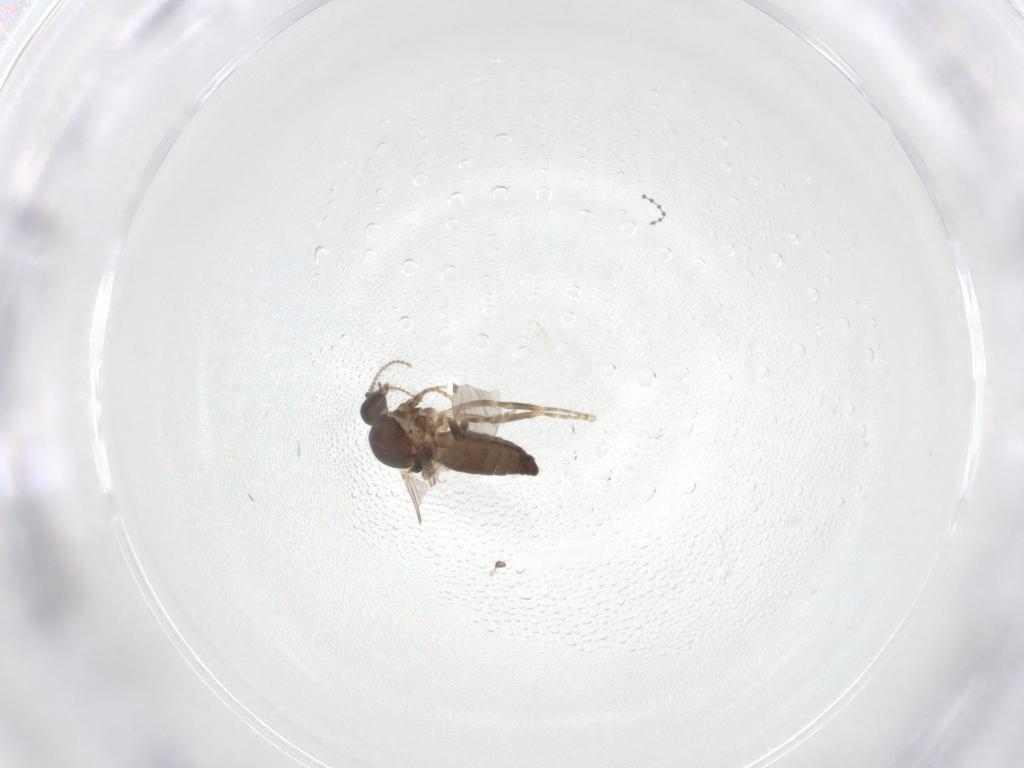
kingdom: Animalia
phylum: Arthropoda
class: Insecta
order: Diptera
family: Ceratopogonidae
